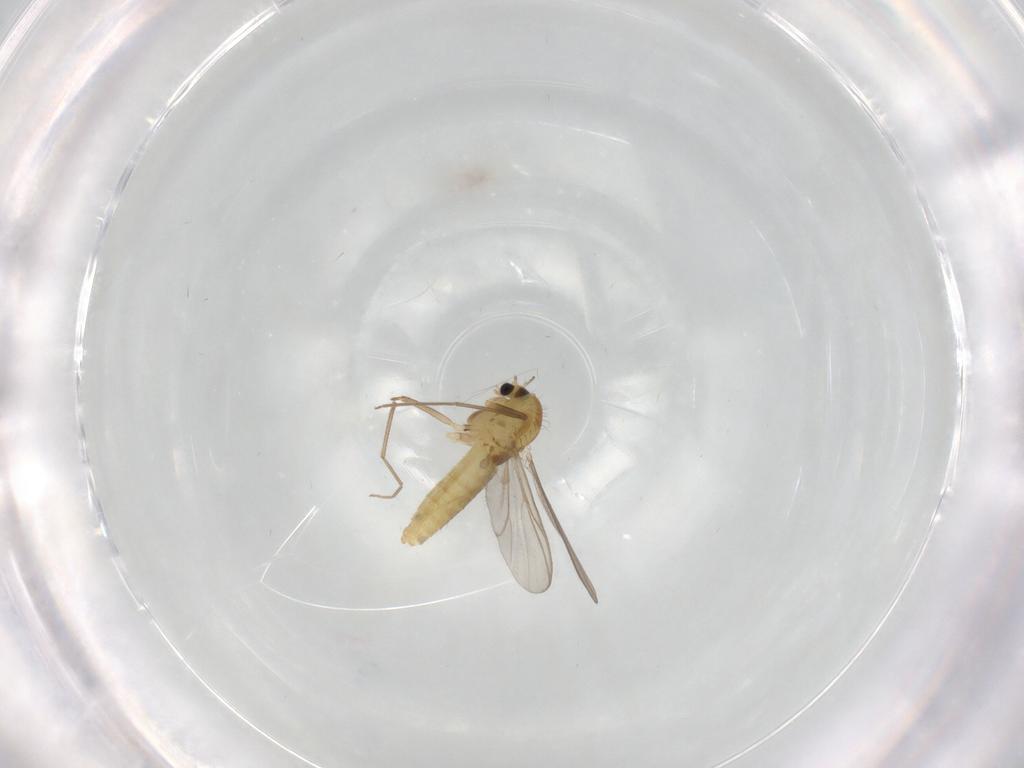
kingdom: Animalia
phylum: Arthropoda
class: Insecta
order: Diptera
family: Chironomidae
